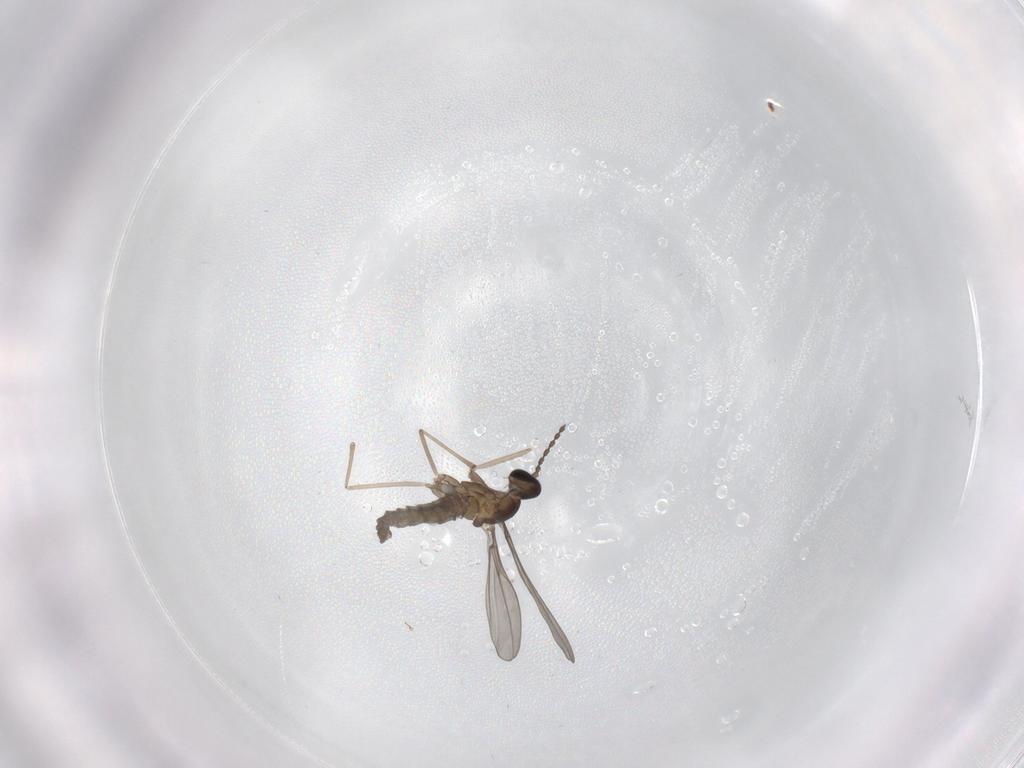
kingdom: Animalia
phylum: Arthropoda
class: Insecta
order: Diptera
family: Cecidomyiidae
